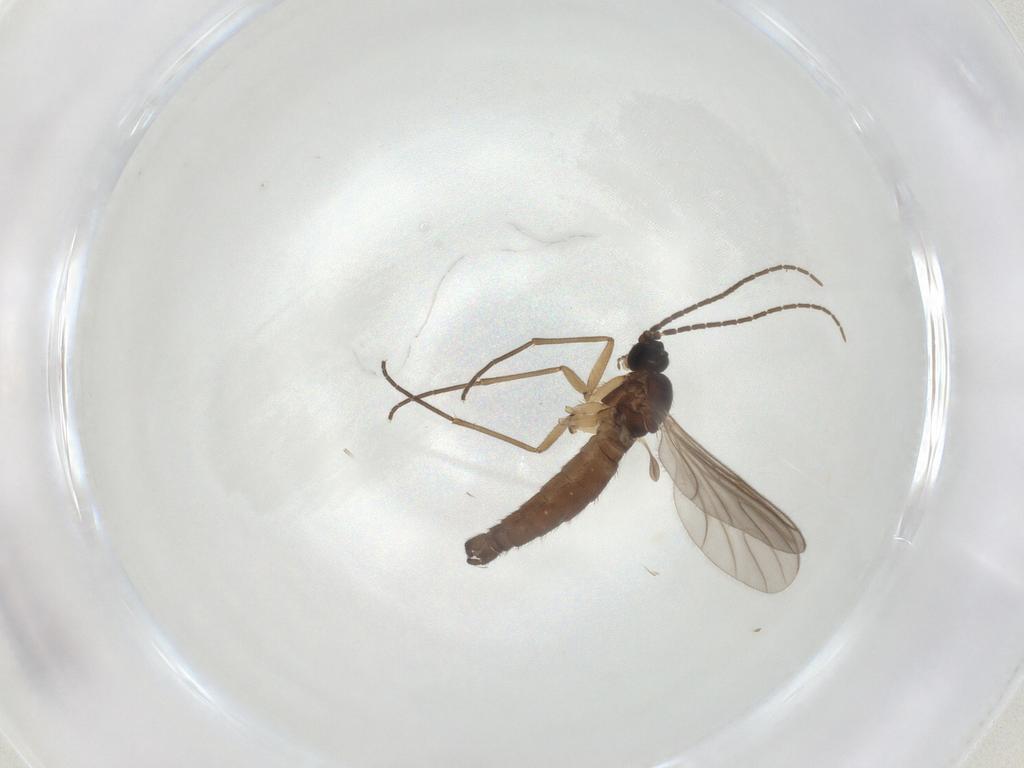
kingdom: Animalia
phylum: Arthropoda
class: Insecta
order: Diptera
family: Sciaridae
